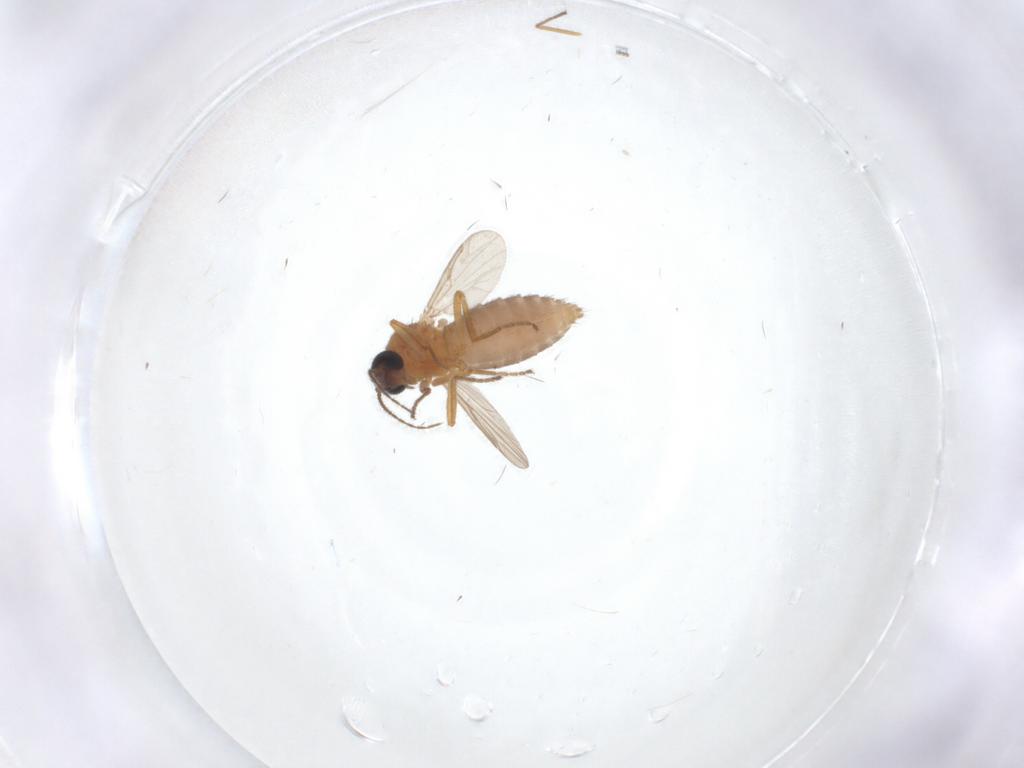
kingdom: Animalia
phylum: Arthropoda
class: Insecta
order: Diptera
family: Ceratopogonidae
